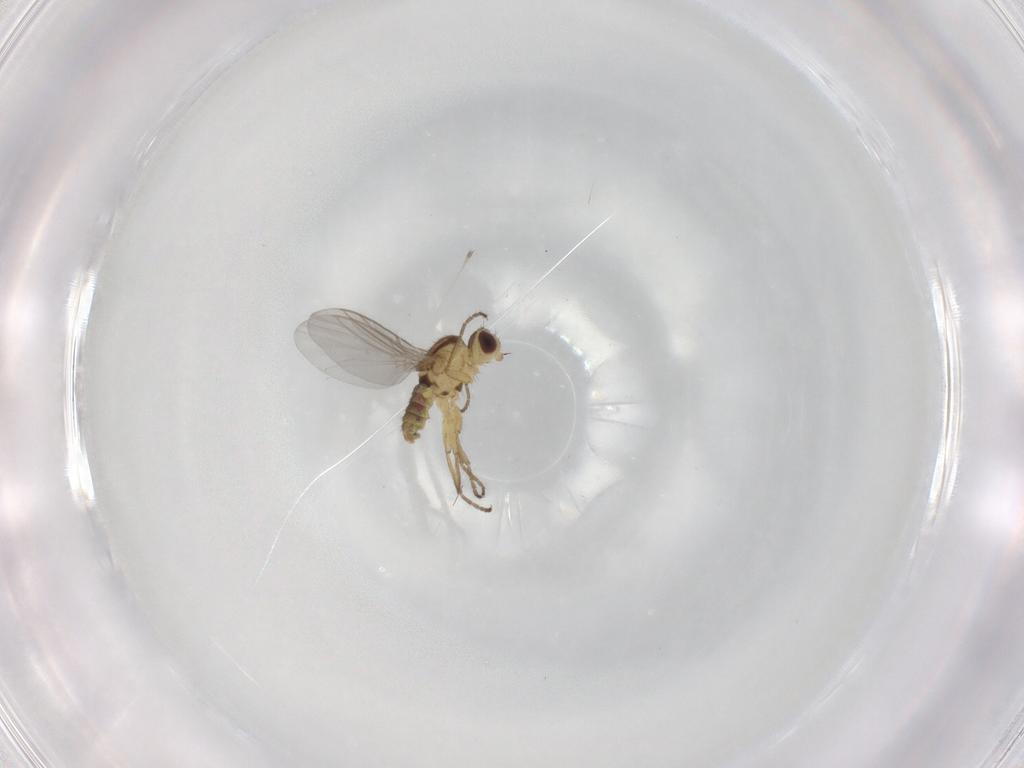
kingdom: Animalia
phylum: Arthropoda
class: Insecta
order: Diptera
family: Agromyzidae
